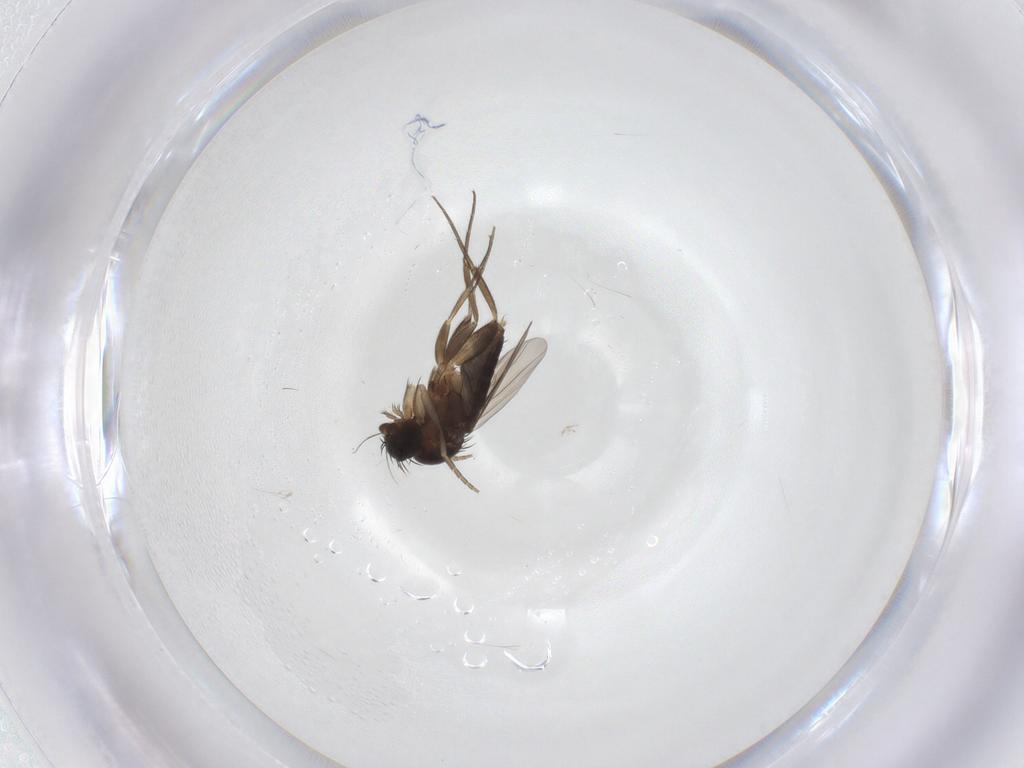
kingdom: Animalia
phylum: Arthropoda
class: Insecta
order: Diptera
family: Phoridae
